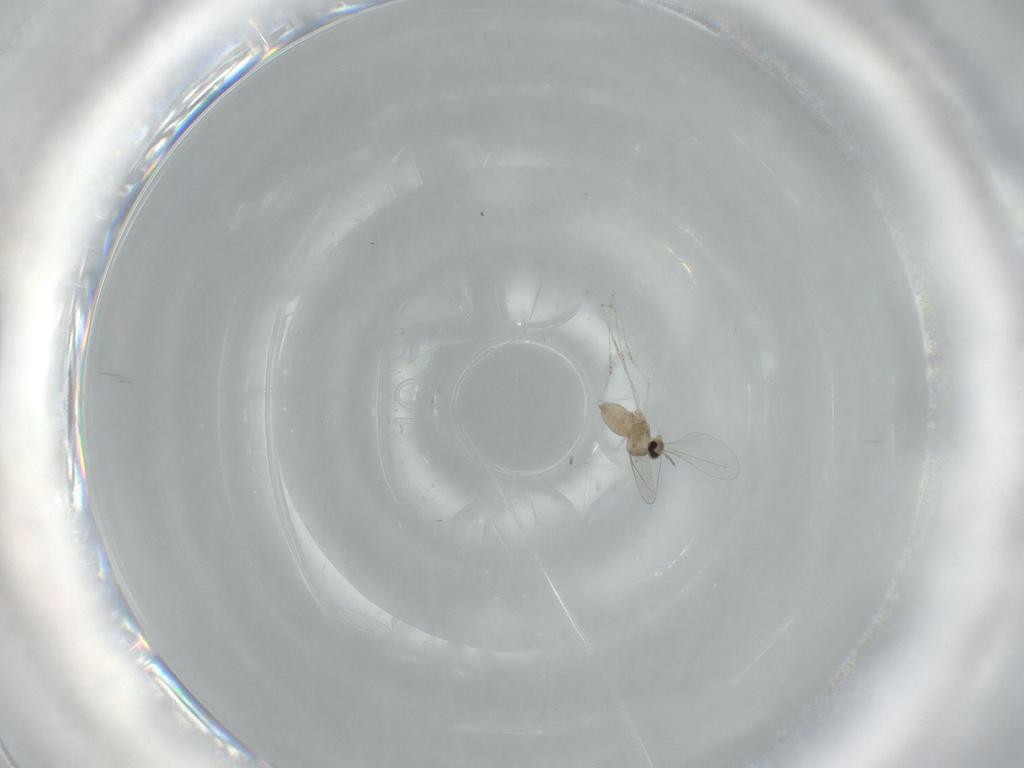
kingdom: Animalia
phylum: Arthropoda
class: Insecta
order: Diptera
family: Cecidomyiidae
